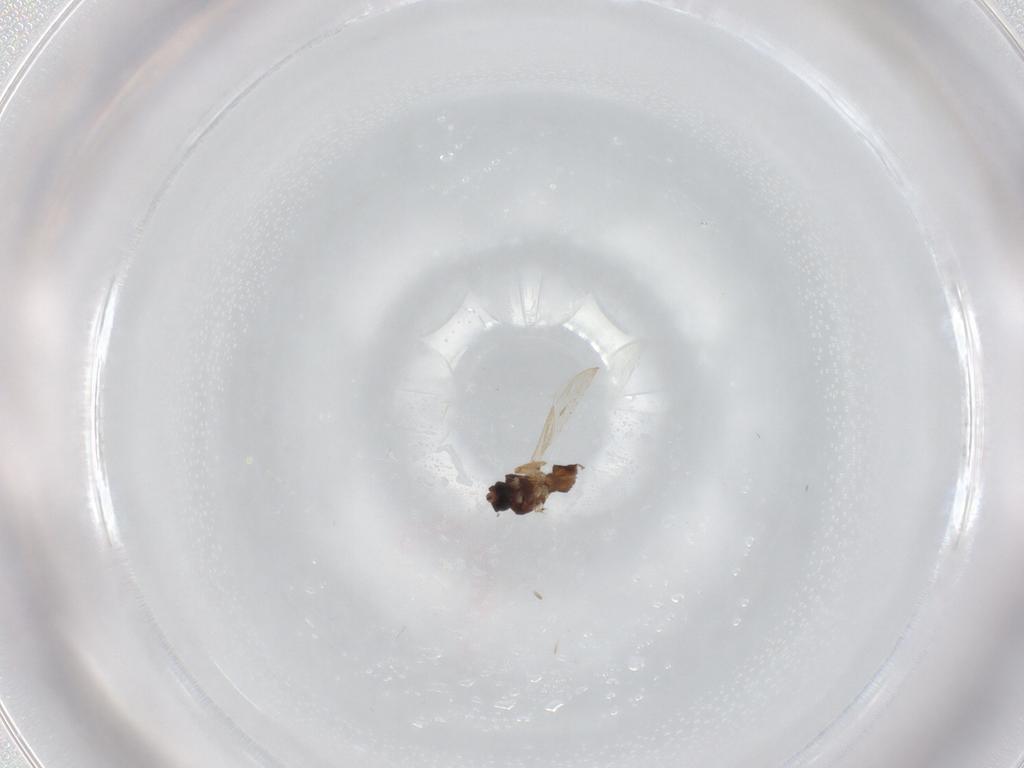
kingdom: Animalia
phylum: Arthropoda
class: Insecta
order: Diptera
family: Ceratopogonidae
